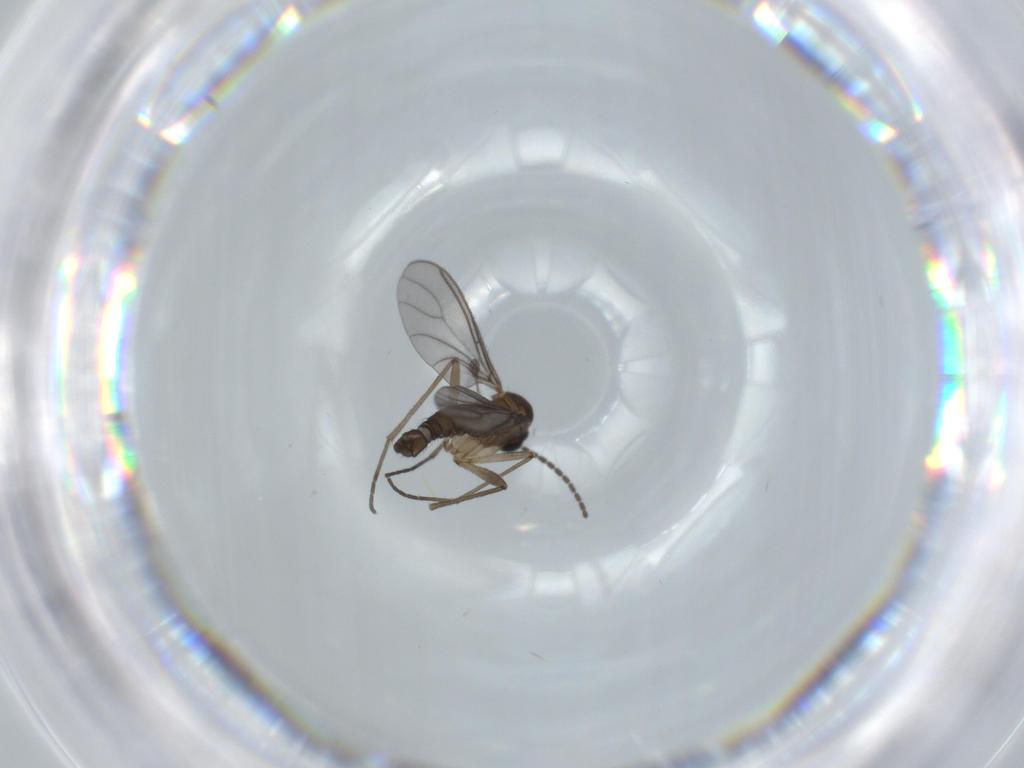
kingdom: Animalia
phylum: Arthropoda
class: Insecta
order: Diptera
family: Sciaridae
